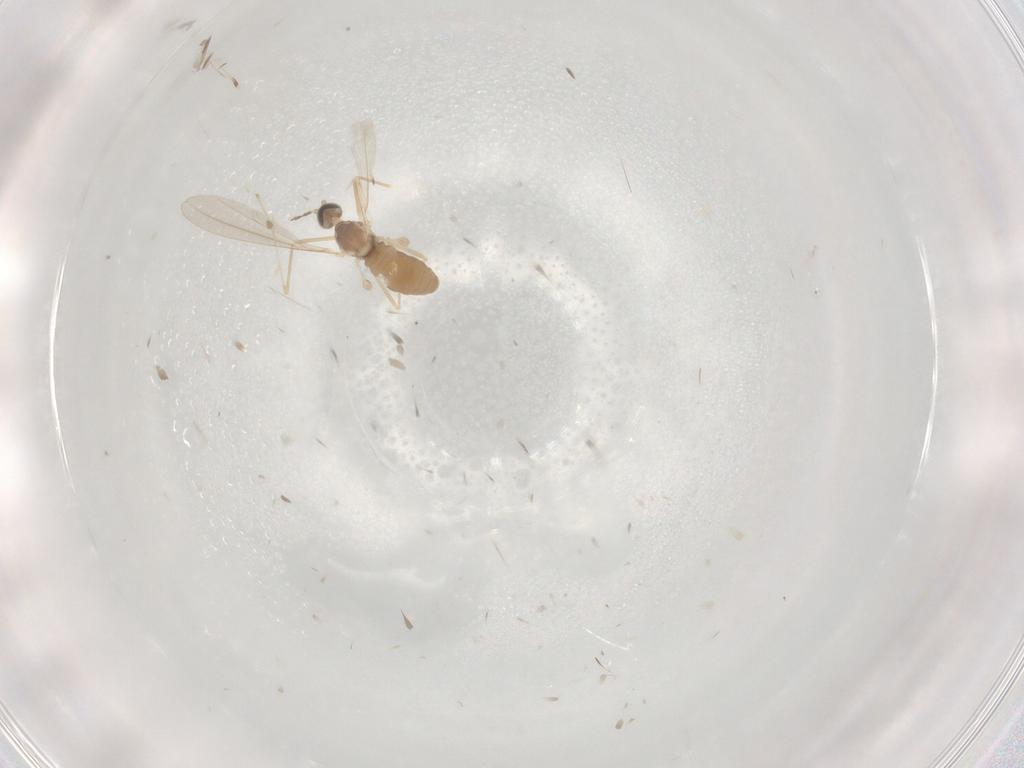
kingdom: Animalia
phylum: Arthropoda
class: Insecta
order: Diptera
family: Cecidomyiidae
